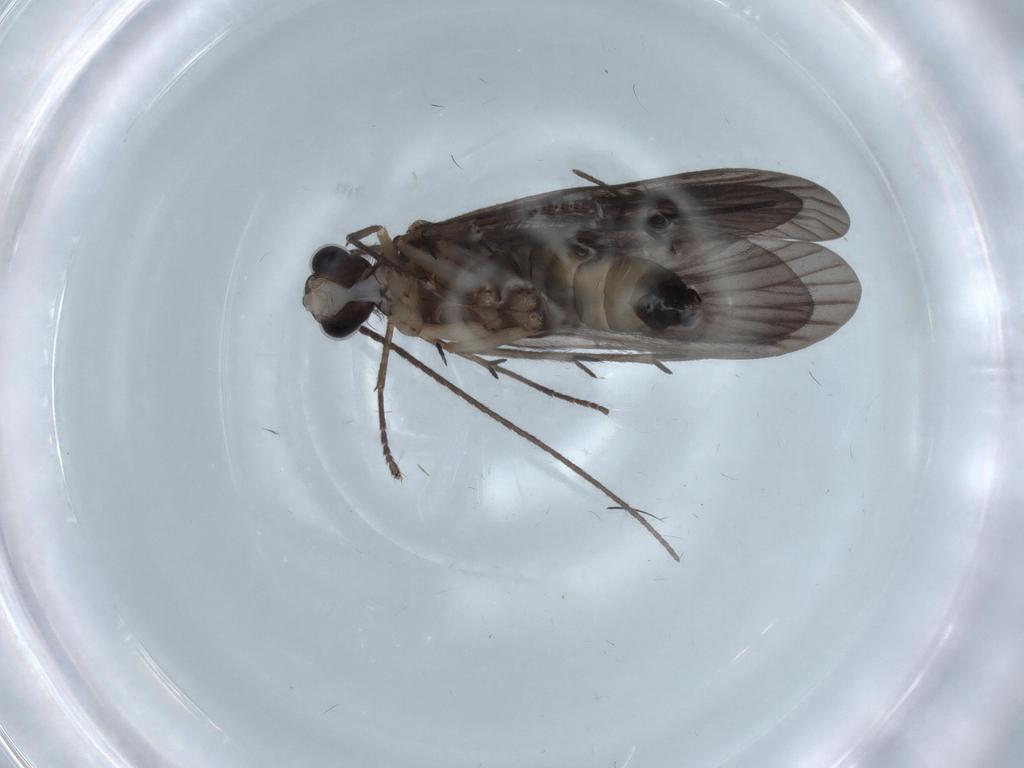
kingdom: Animalia
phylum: Arthropoda
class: Insecta
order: Trichoptera
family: Philopotamidae
